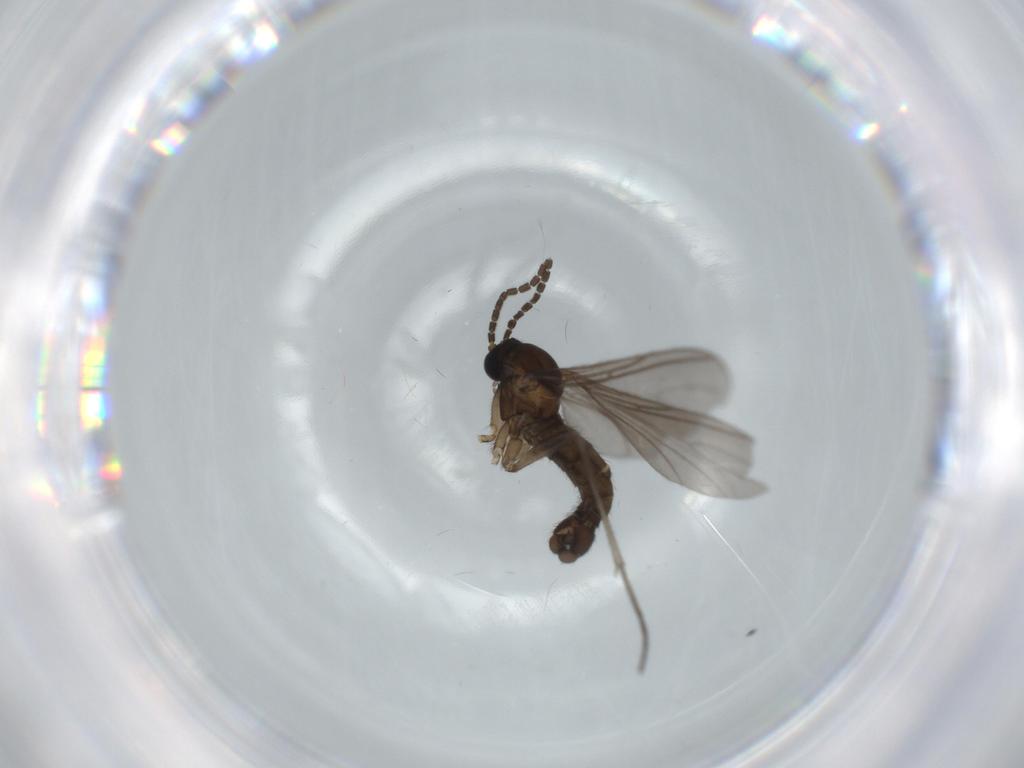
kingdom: Animalia
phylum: Arthropoda
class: Insecta
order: Diptera
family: Sciaridae
